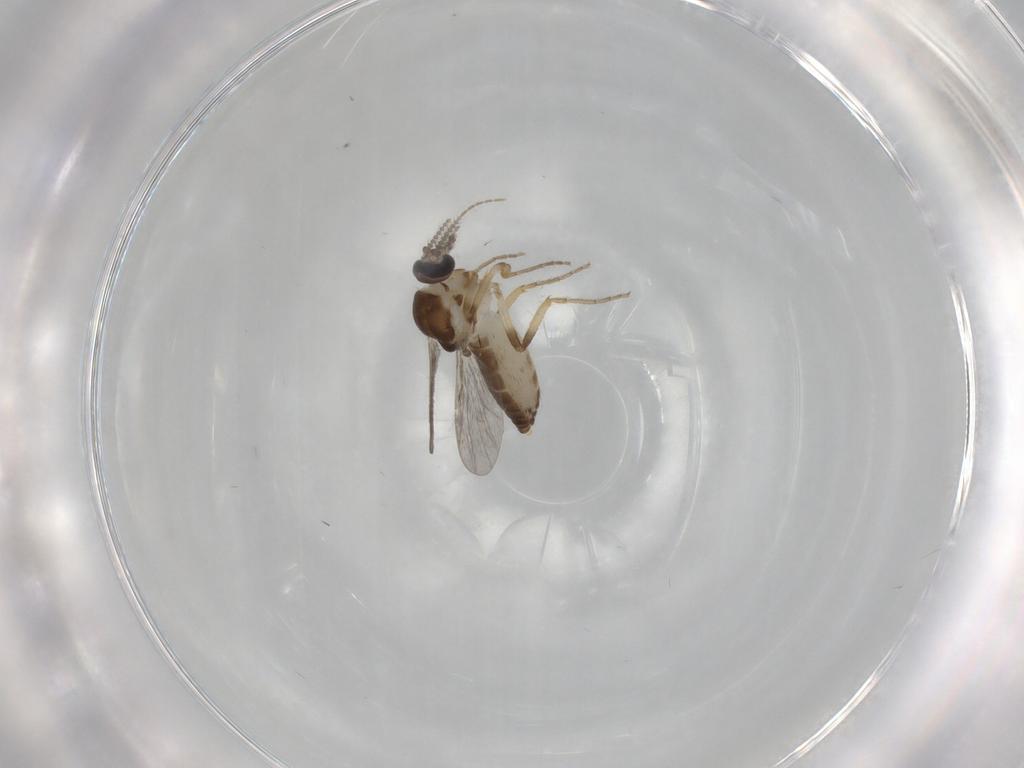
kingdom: Animalia
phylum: Arthropoda
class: Insecta
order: Diptera
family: Ceratopogonidae
